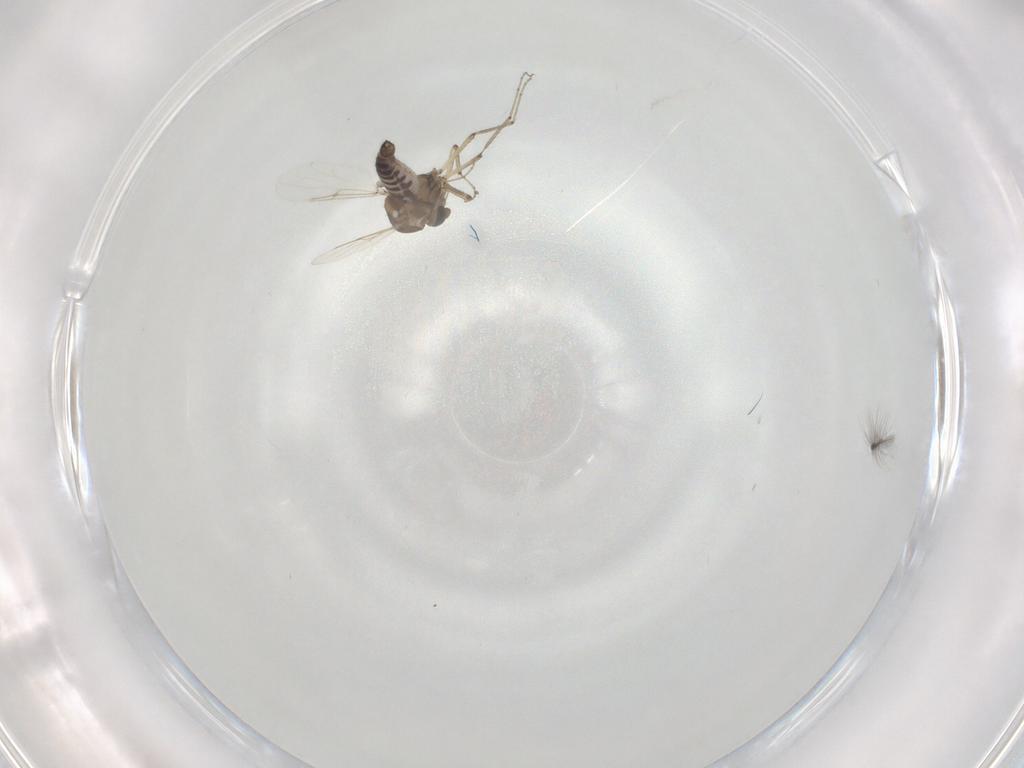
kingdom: Animalia
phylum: Arthropoda
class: Insecta
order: Diptera
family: Ceratopogonidae
